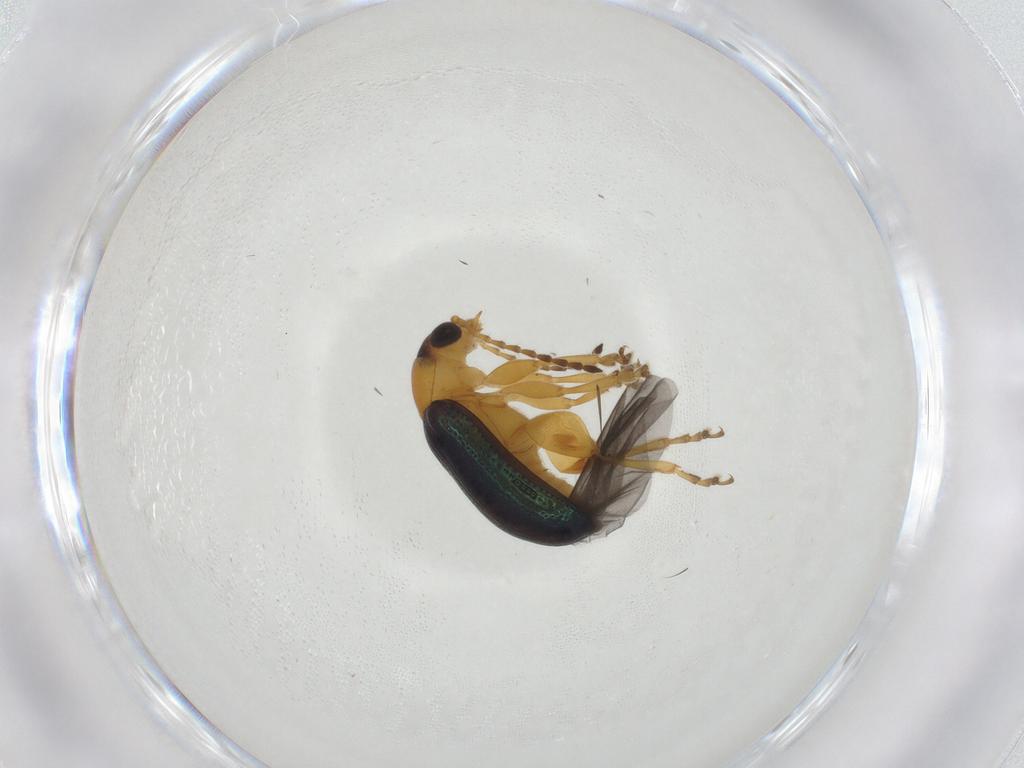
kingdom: Animalia
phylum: Arthropoda
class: Insecta
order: Coleoptera
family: Chrysomelidae
